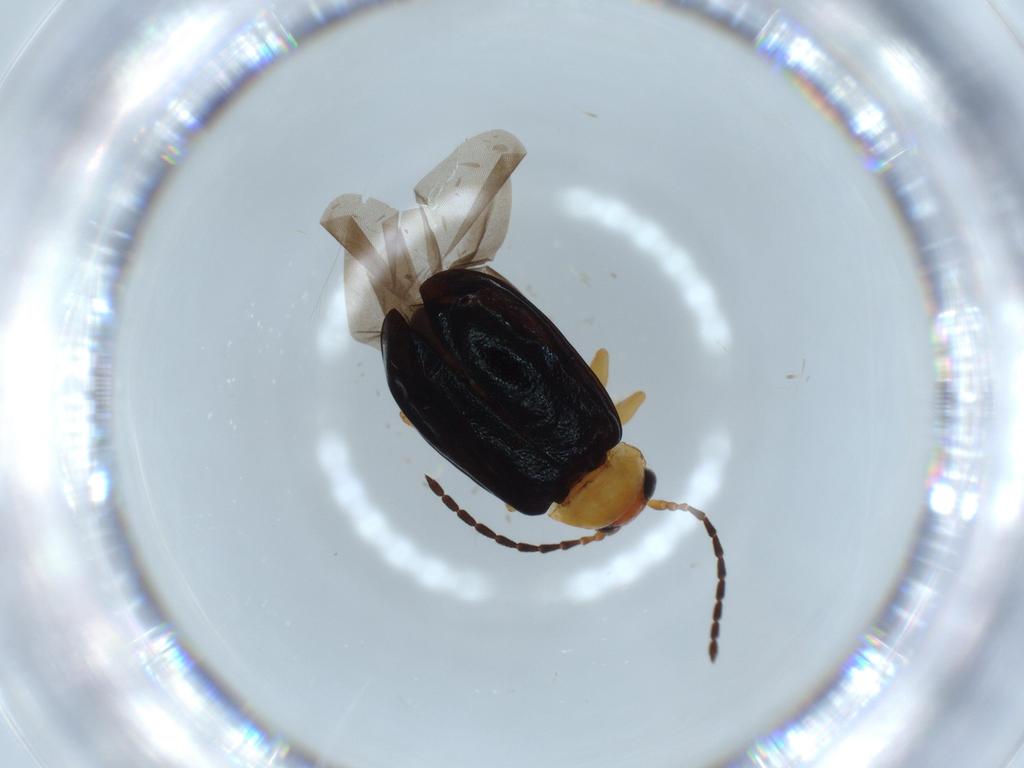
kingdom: Animalia
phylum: Arthropoda
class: Insecta
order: Coleoptera
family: Chrysomelidae
